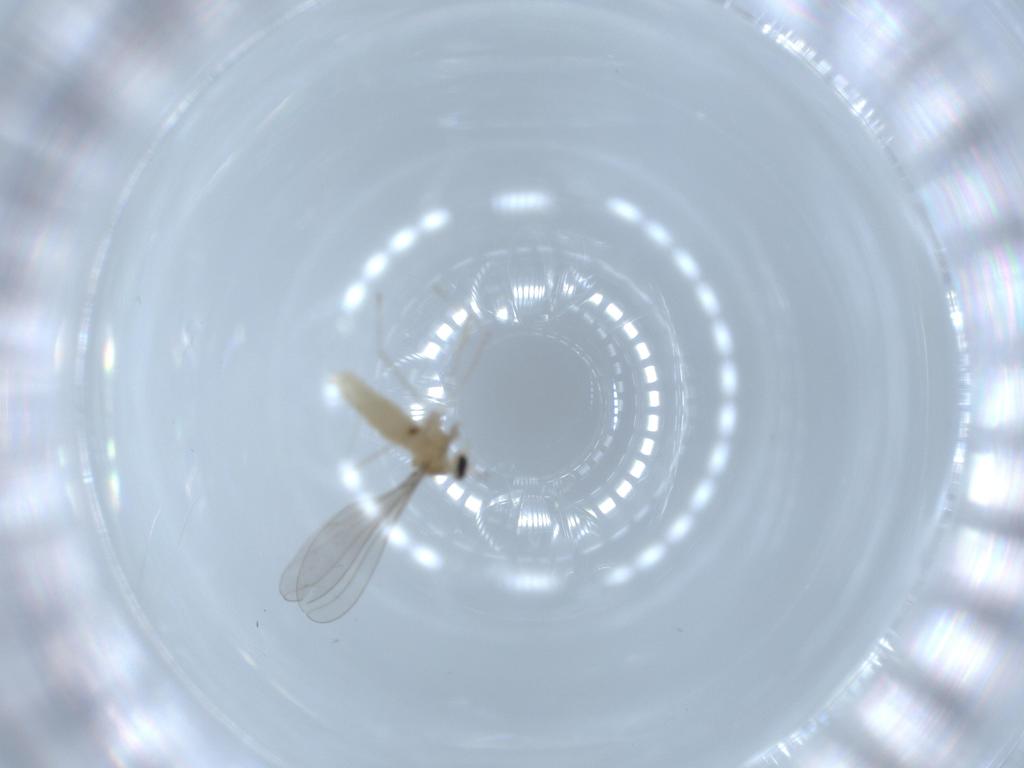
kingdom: Animalia
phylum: Arthropoda
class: Insecta
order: Diptera
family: Cecidomyiidae
